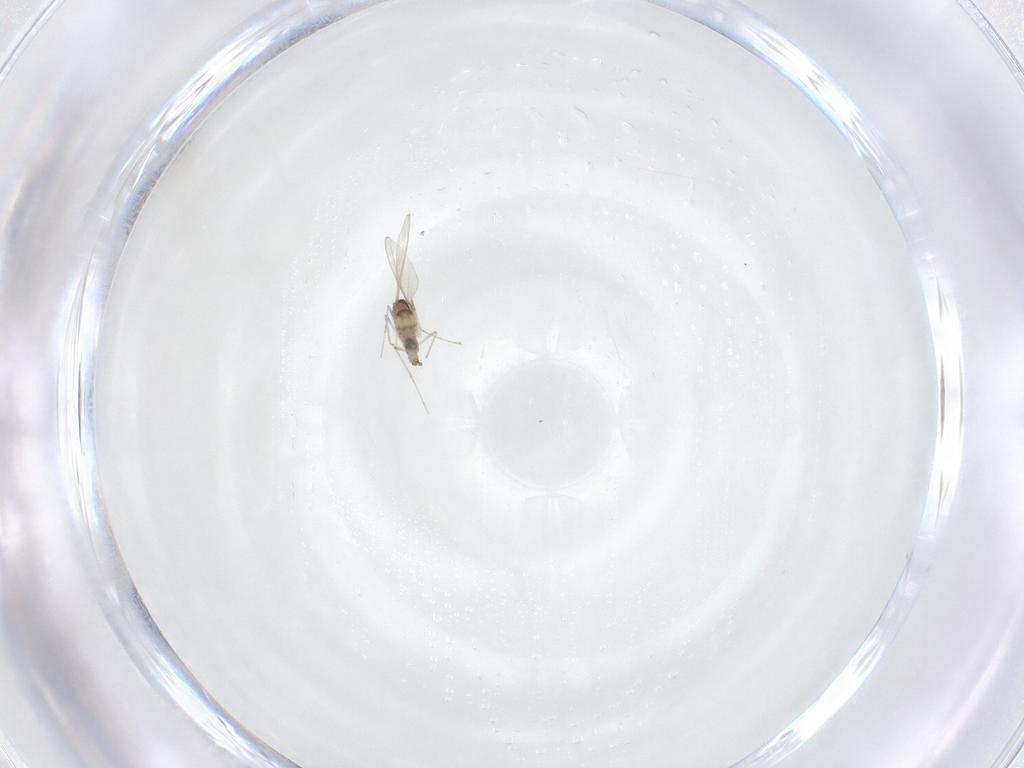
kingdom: Animalia
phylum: Arthropoda
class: Insecta
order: Diptera
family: Cecidomyiidae
